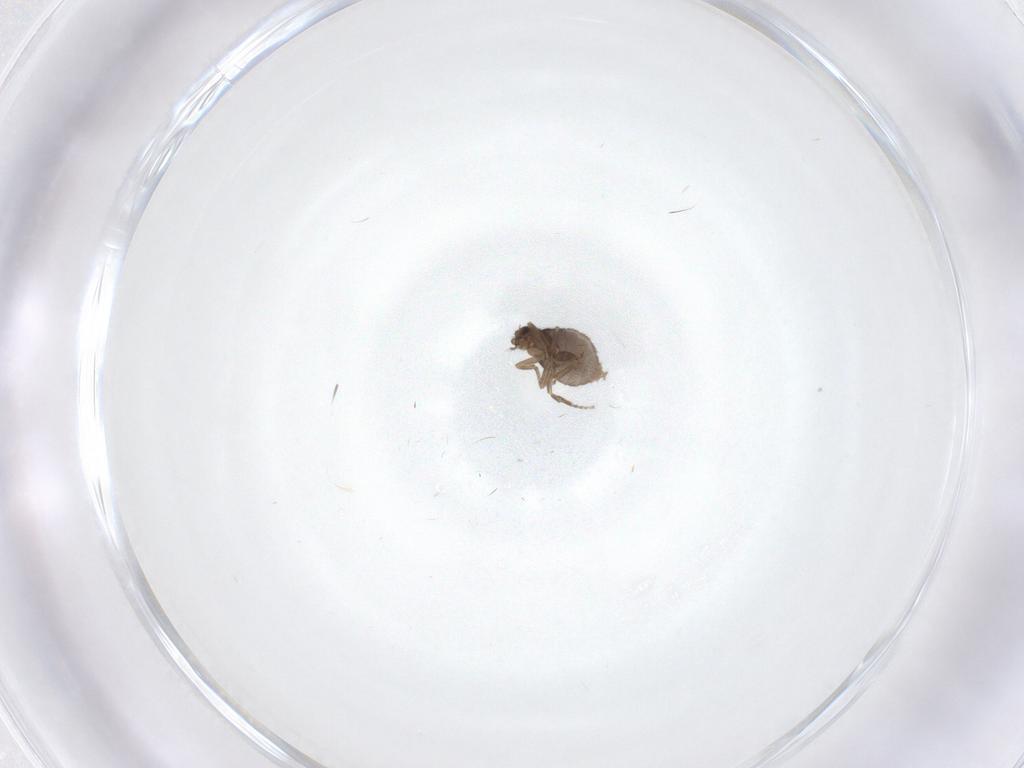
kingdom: Animalia
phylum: Arthropoda
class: Insecta
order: Diptera
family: Phoridae
